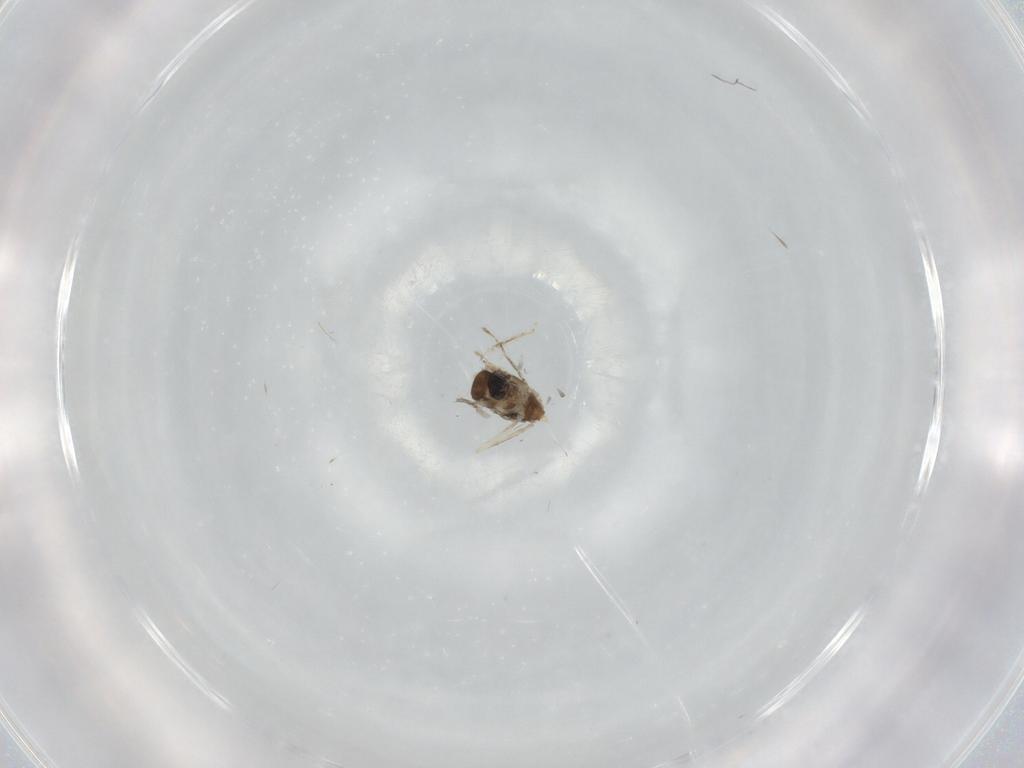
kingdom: Animalia
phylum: Arthropoda
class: Insecta
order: Diptera
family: Cecidomyiidae
